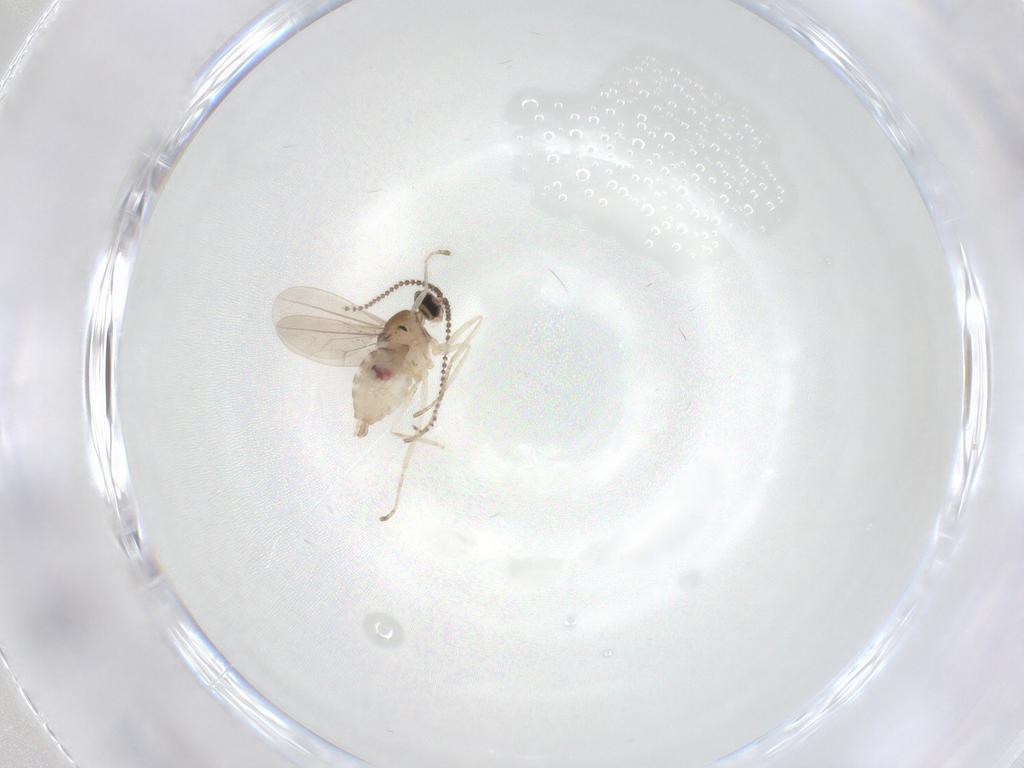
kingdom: Animalia
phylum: Arthropoda
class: Insecta
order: Diptera
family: Cecidomyiidae
